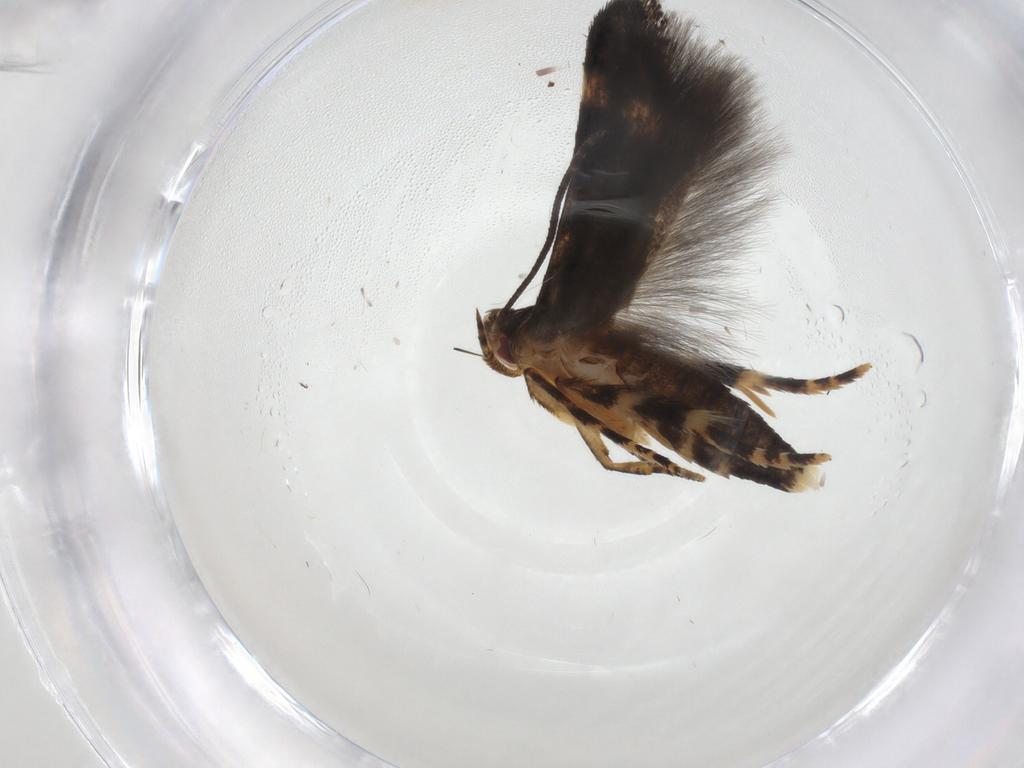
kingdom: Animalia
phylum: Arthropoda
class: Insecta
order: Lepidoptera
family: Momphidae
